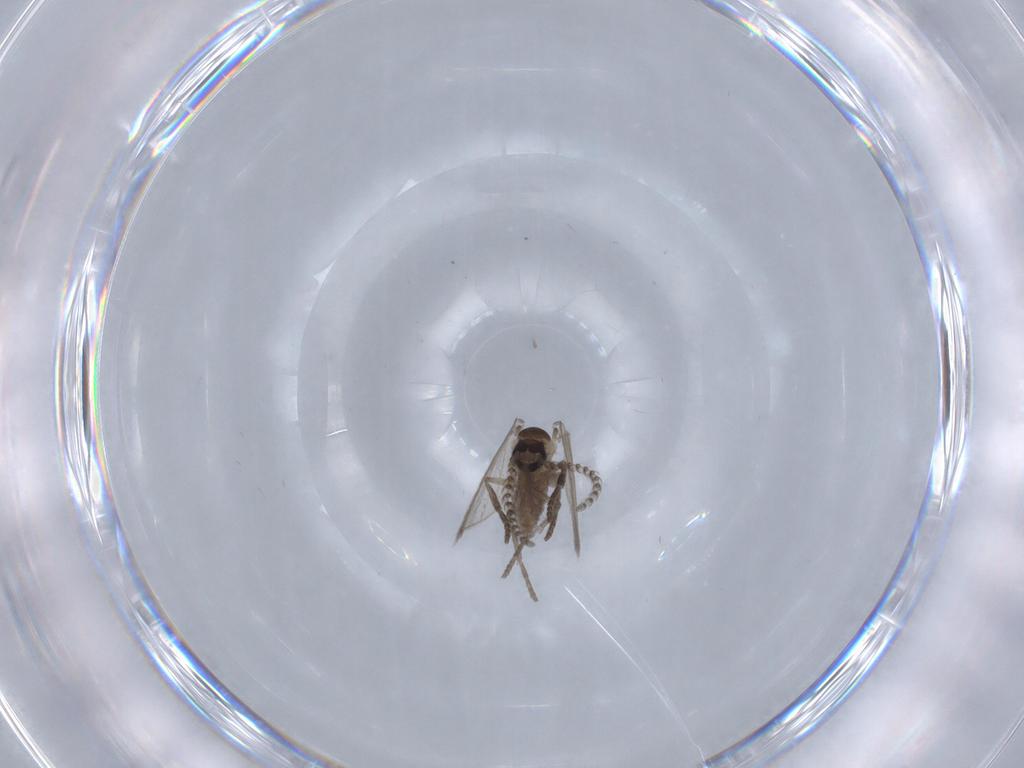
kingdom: Animalia
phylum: Arthropoda
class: Insecta
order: Diptera
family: Psychodidae
